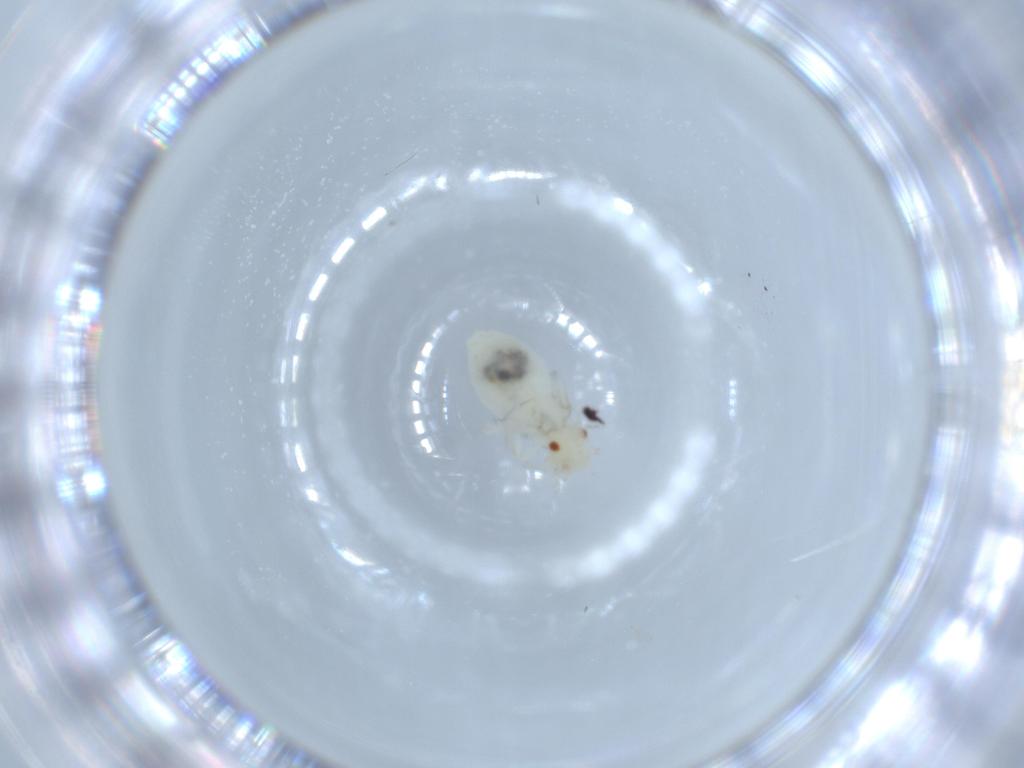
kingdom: Animalia
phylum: Arthropoda
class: Insecta
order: Psocodea
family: Caeciliusidae
